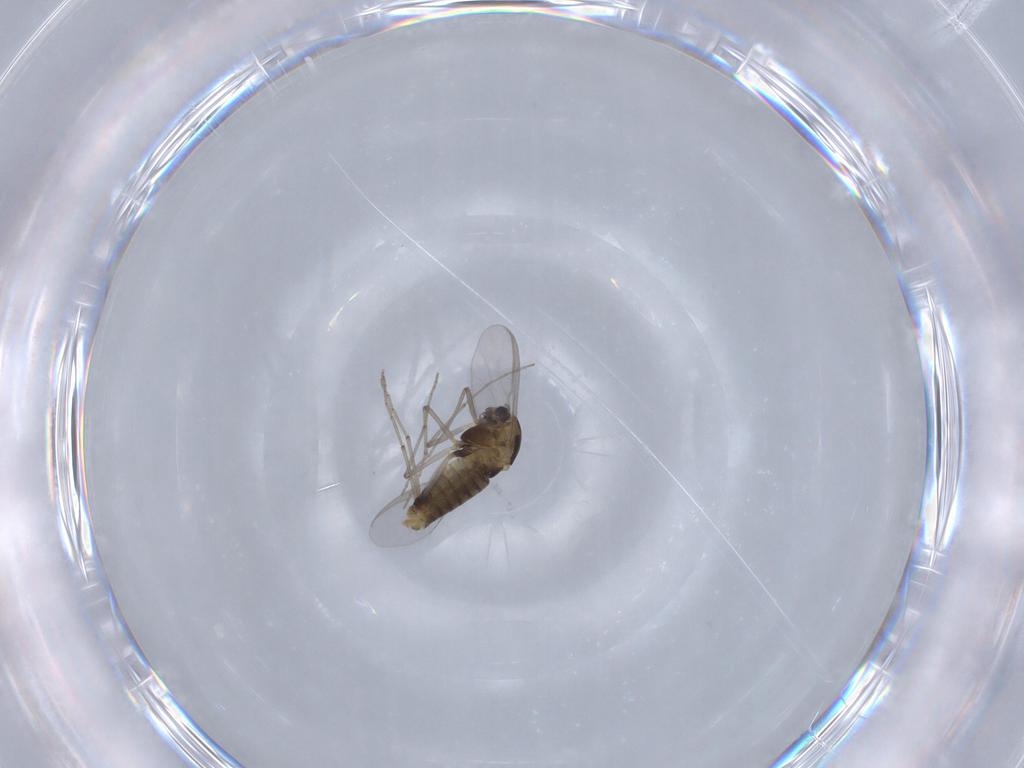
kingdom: Animalia
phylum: Arthropoda
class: Insecta
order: Diptera
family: Chironomidae
